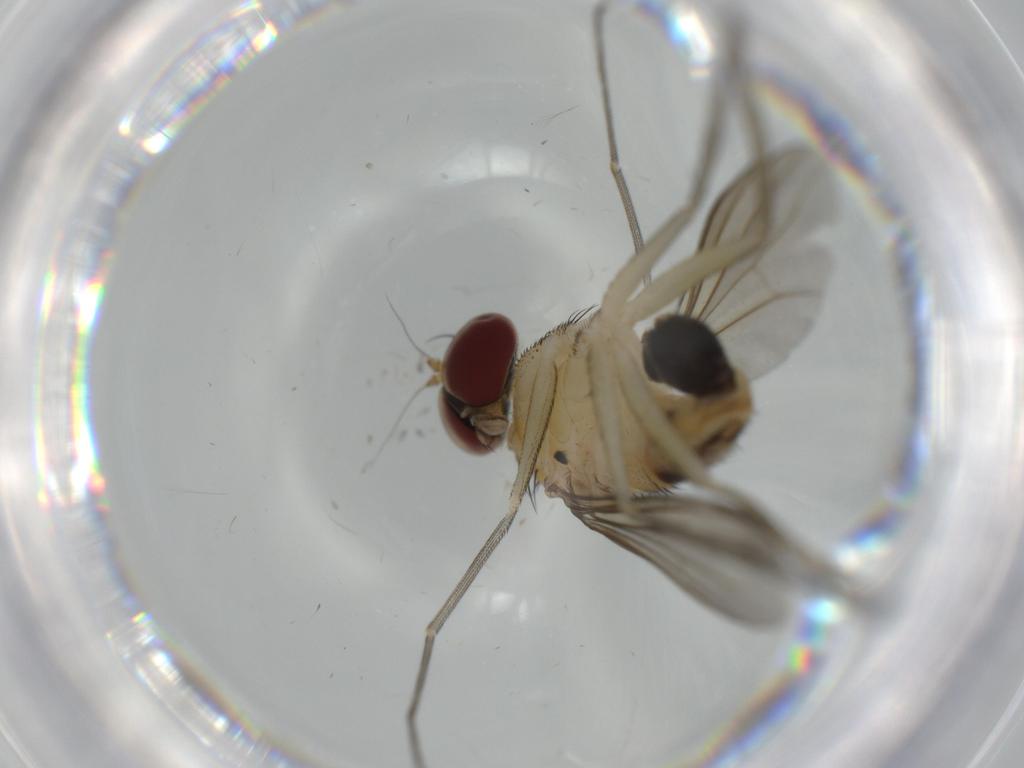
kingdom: Animalia
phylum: Arthropoda
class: Insecta
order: Diptera
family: Dolichopodidae
